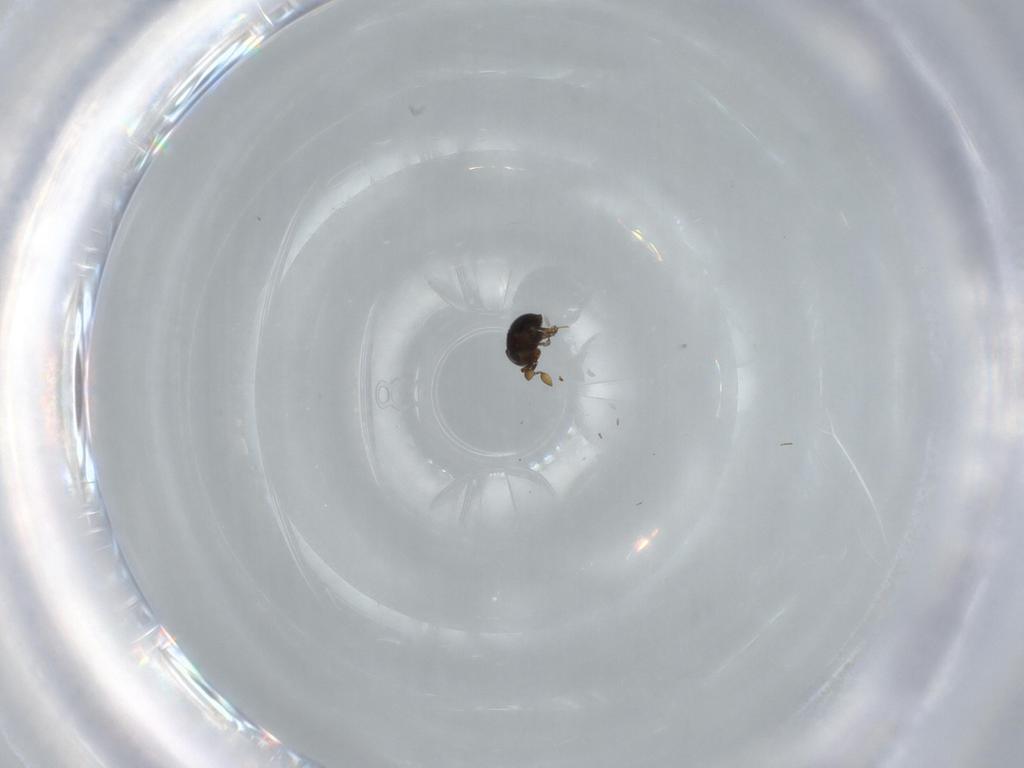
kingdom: Animalia
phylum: Arthropoda
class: Insecta
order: Hymenoptera
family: Scelionidae
